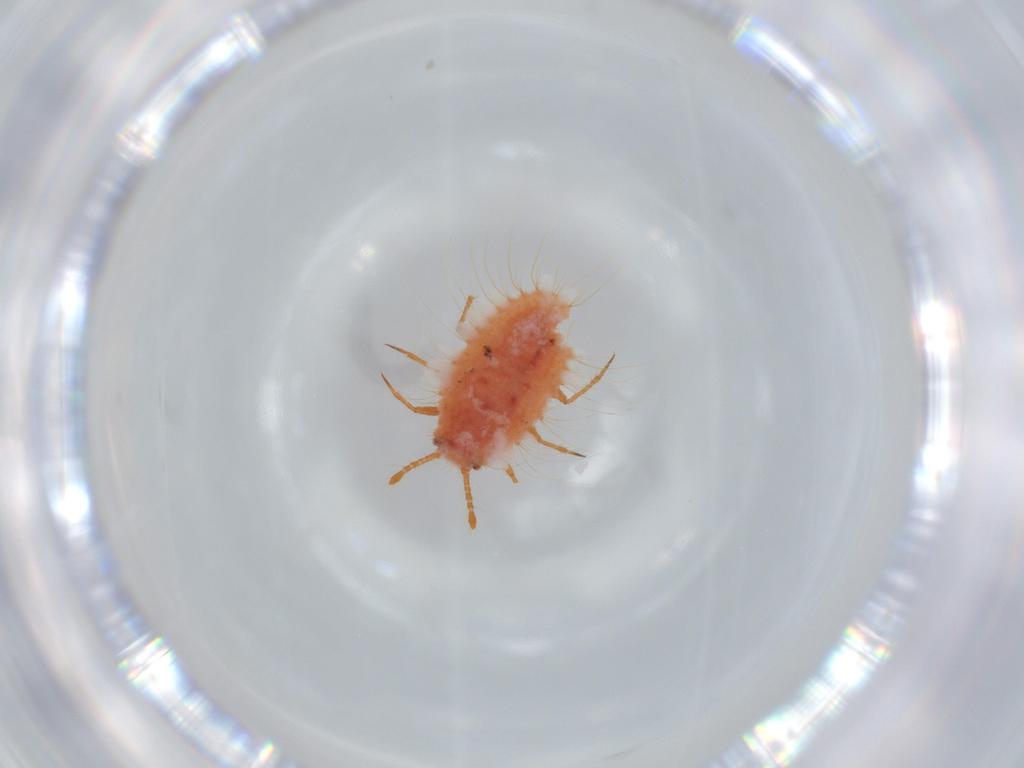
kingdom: Animalia
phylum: Arthropoda
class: Insecta
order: Hemiptera
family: Coccoidea_incertae_sedis
